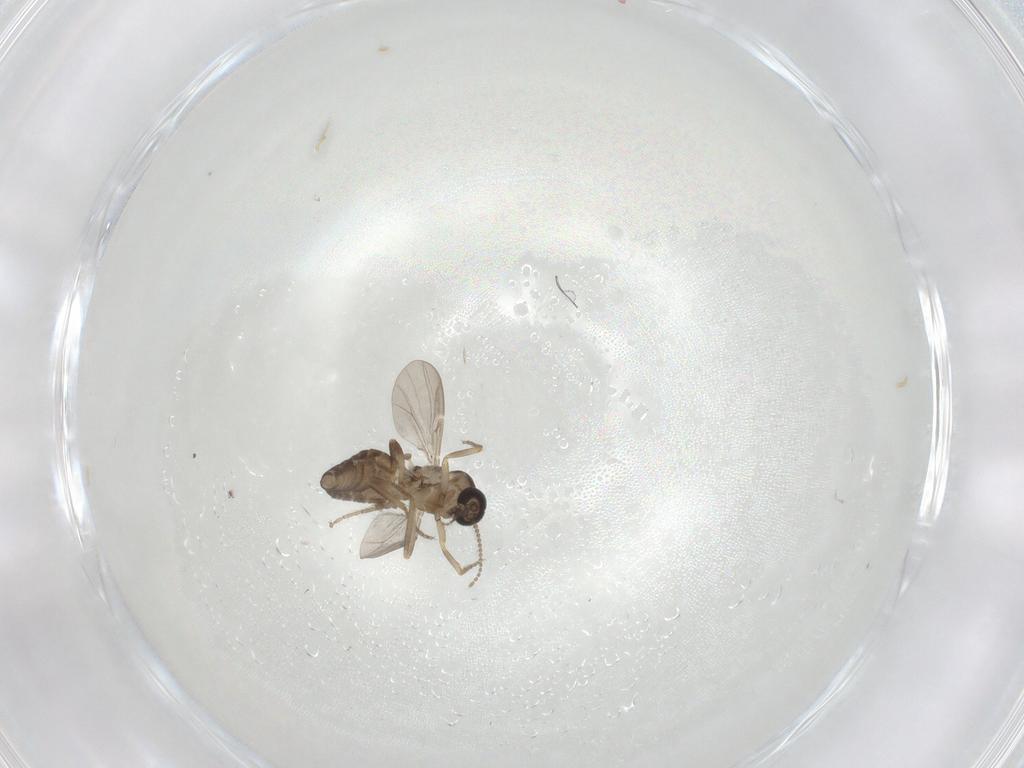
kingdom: Animalia
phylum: Arthropoda
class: Insecta
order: Diptera
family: Ceratopogonidae
